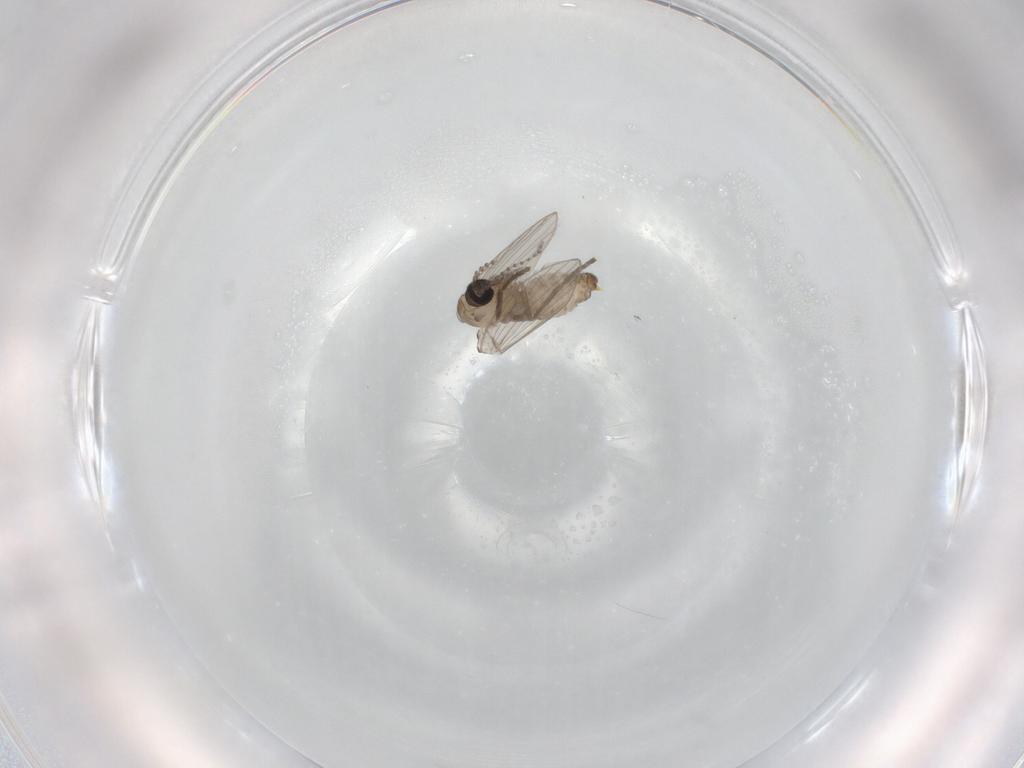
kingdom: Animalia
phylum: Arthropoda
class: Insecta
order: Diptera
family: Psychodidae
